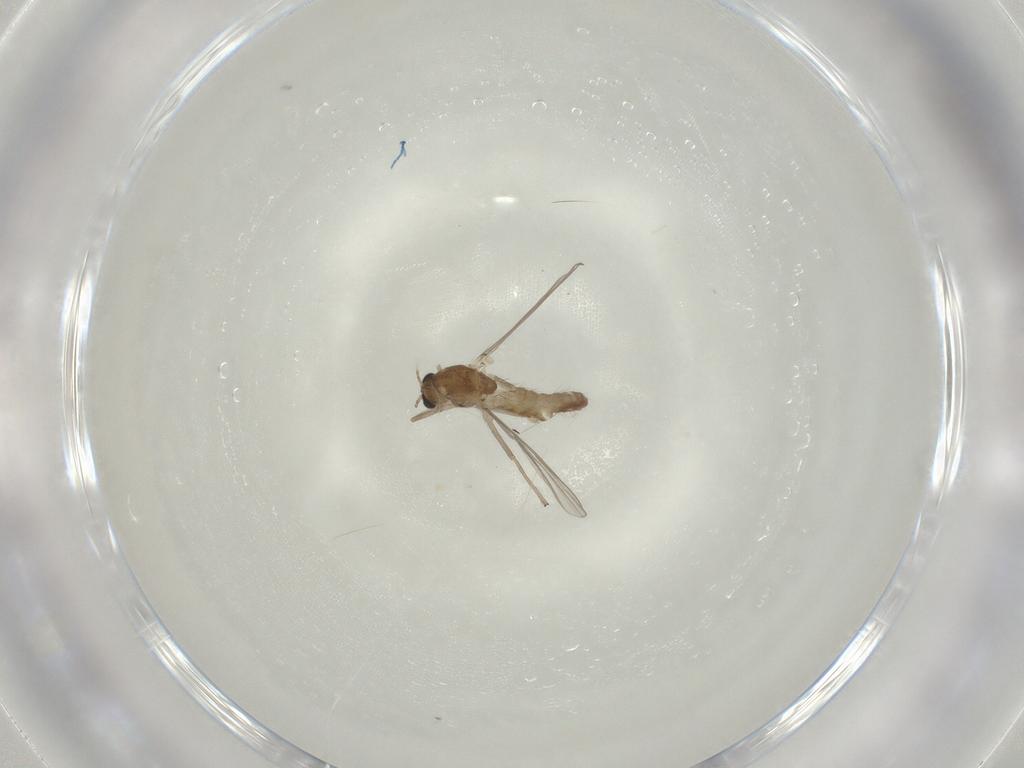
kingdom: Animalia
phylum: Arthropoda
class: Insecta
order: Diptera
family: Chironomidae
